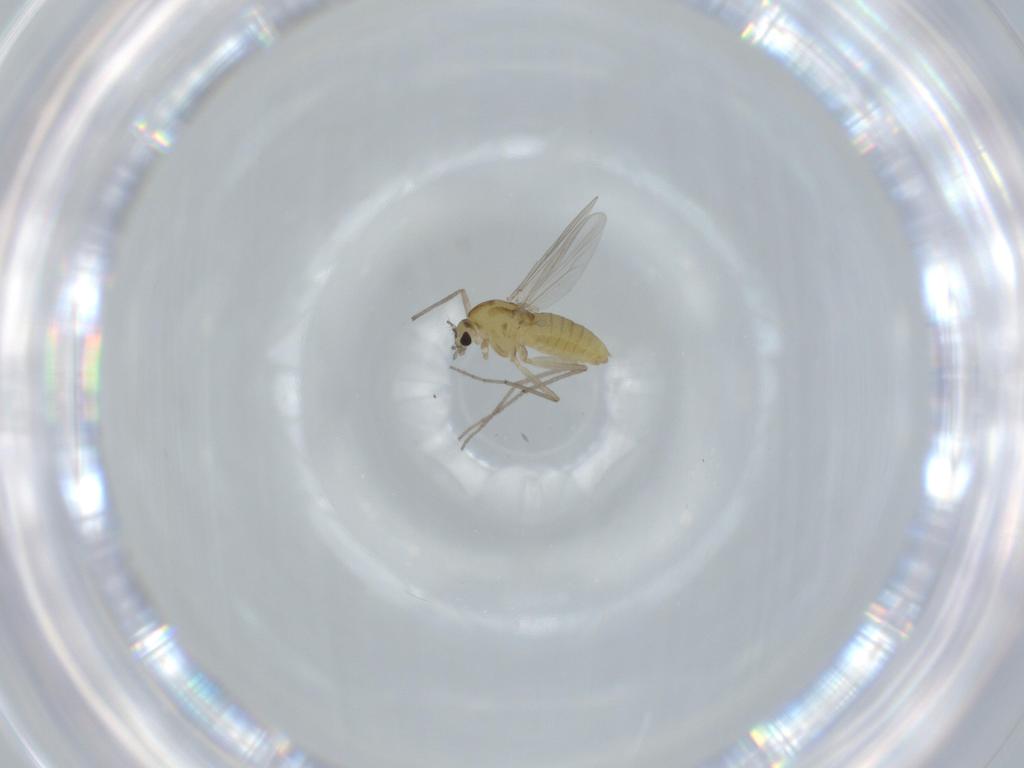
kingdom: Animalia
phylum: Arthropoda
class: Insecta
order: Diptera
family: Chironomidae
